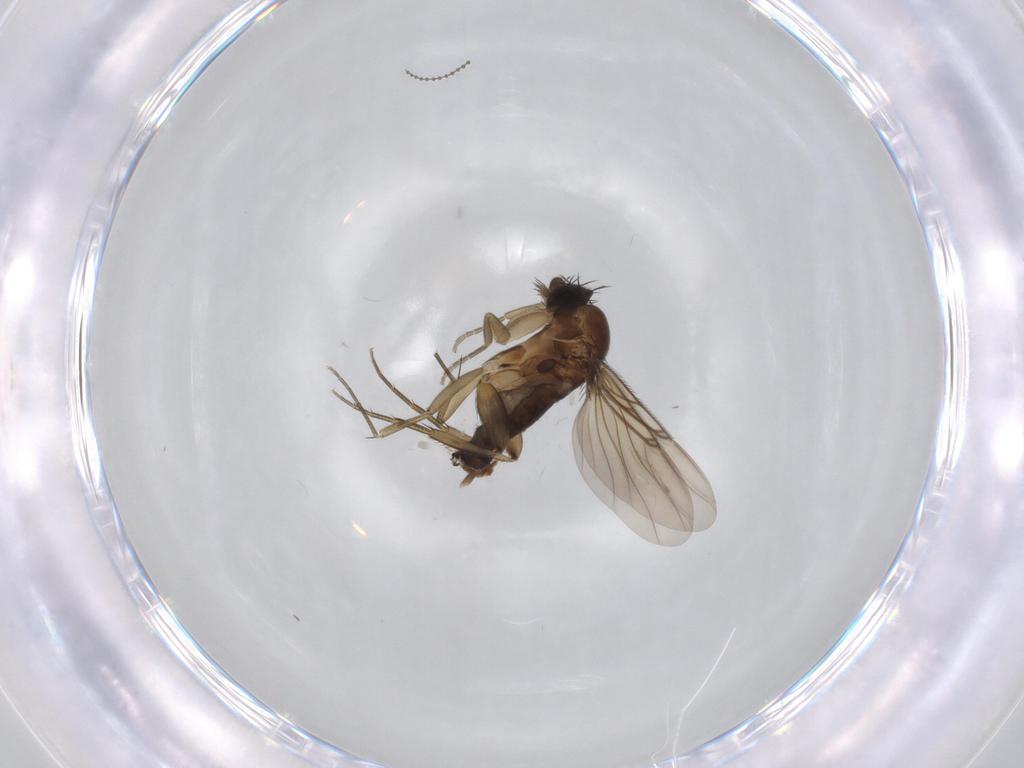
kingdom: Animalia
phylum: Arthropoda
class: Insecta
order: Diptera
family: Phoridae
